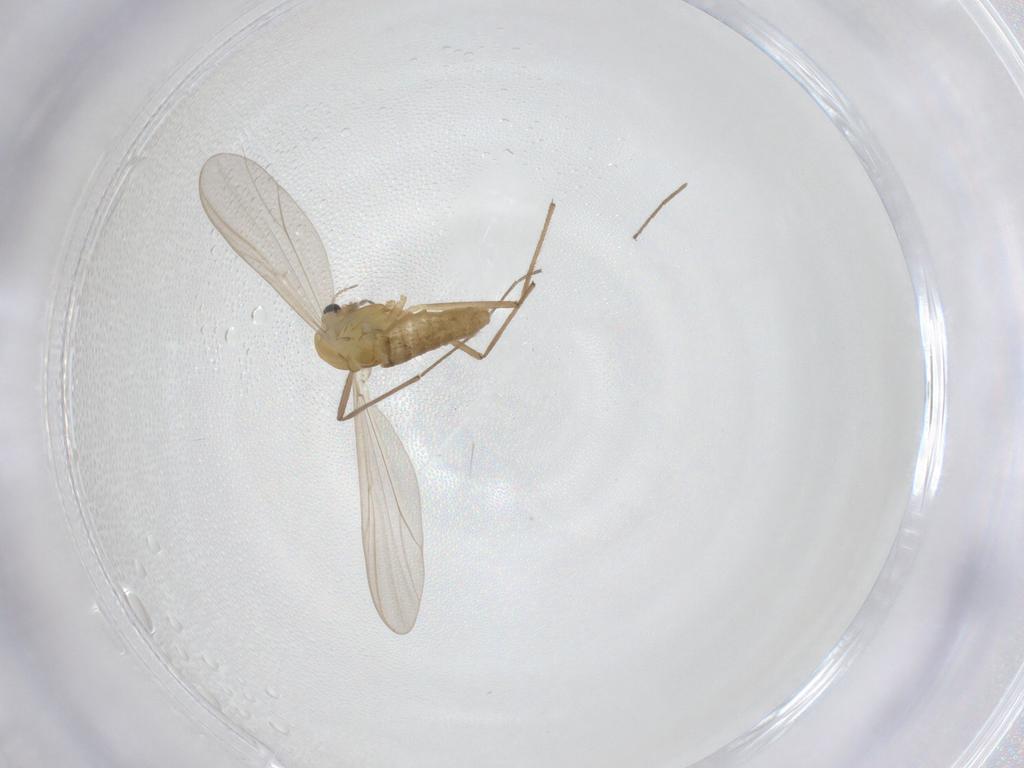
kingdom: Animalia
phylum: Arthropoda
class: Insecta
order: Diptera
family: Chironomidae
